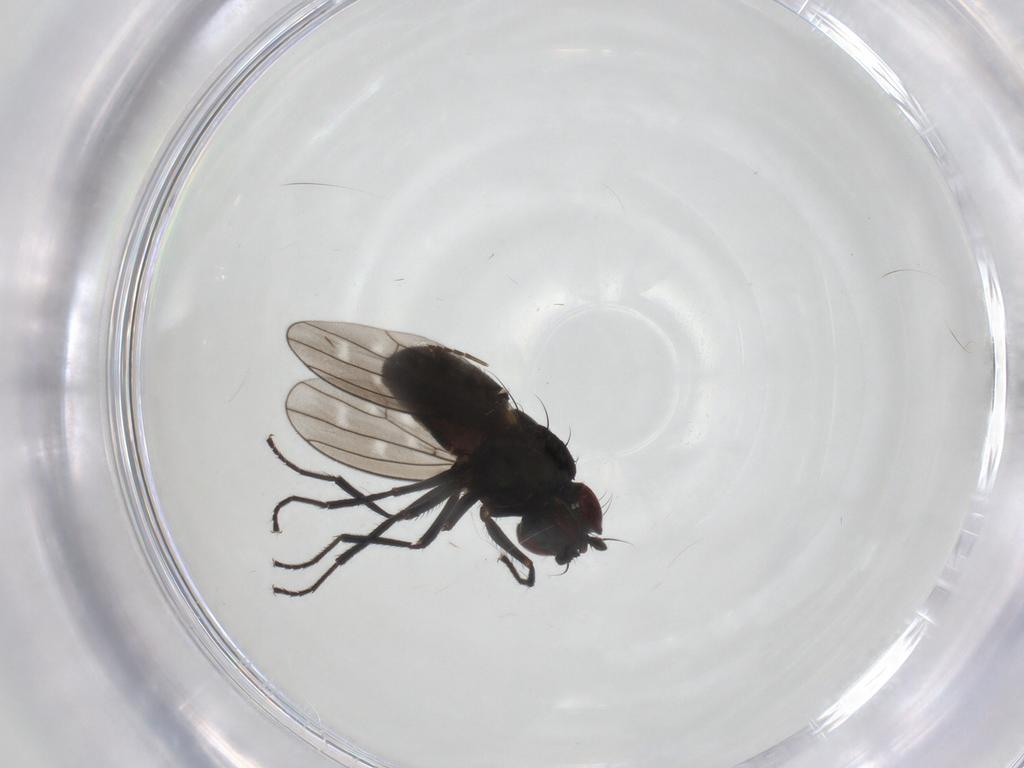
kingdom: Animalia
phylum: Arthropoda
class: Insecta
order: Diptera
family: Ephydridae
